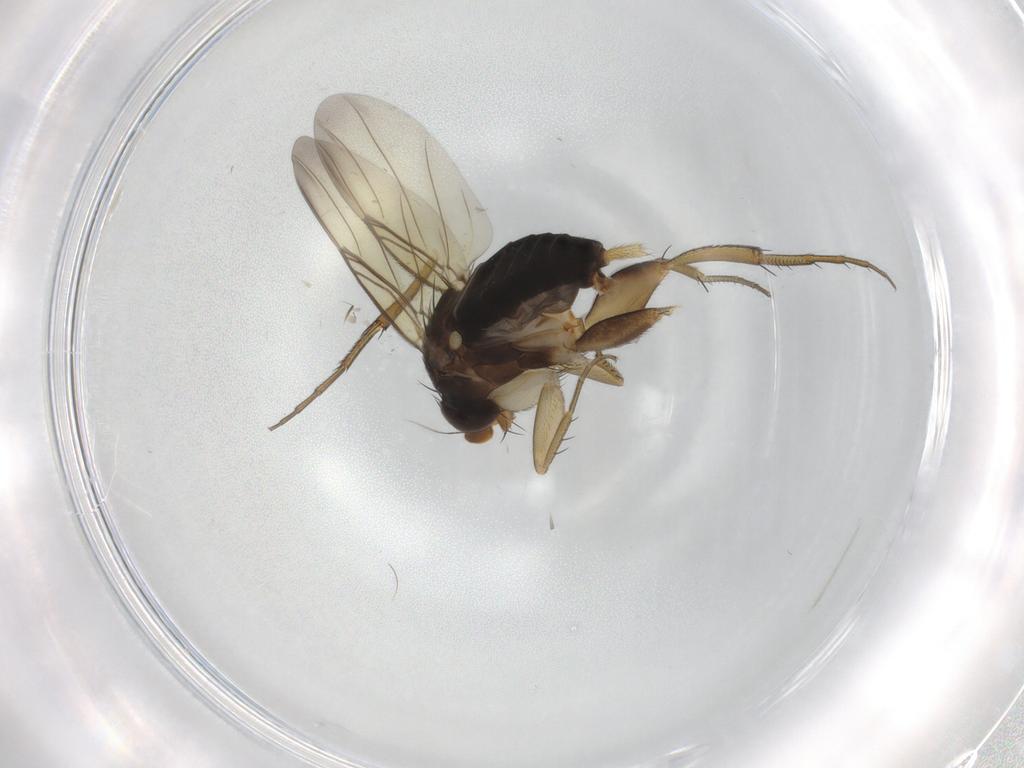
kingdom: Animalia
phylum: Arthropoda
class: Insecta
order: Diptera
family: Phoridae
